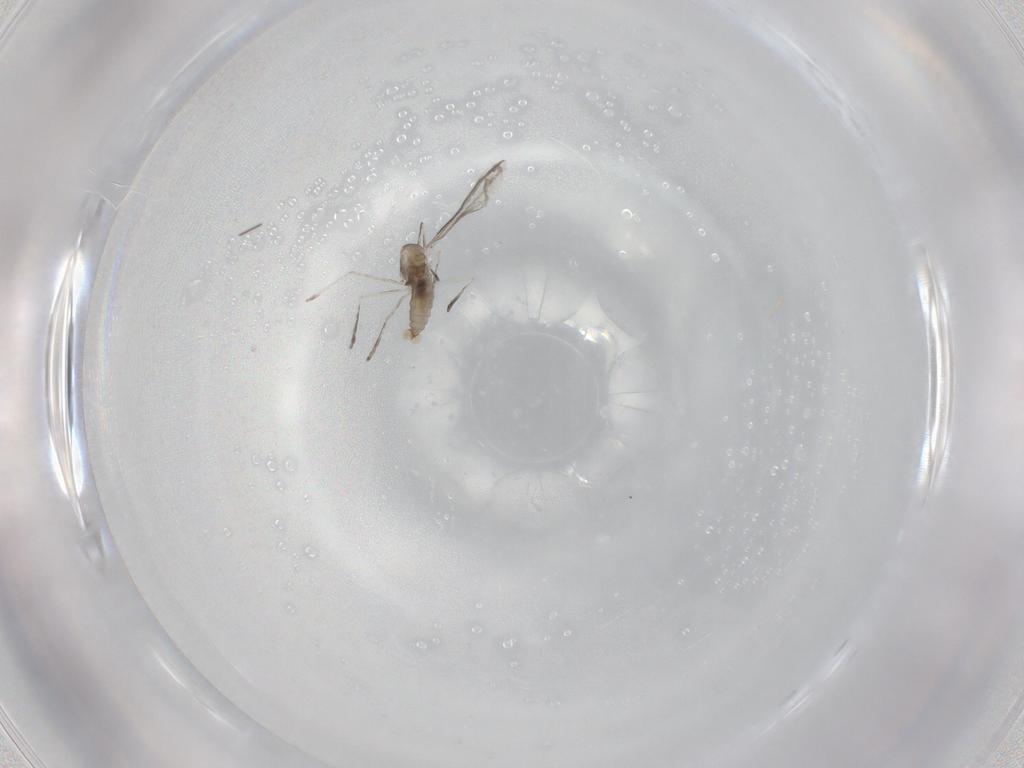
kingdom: Animalia
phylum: Arthropoda
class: Insecta
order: Diptera
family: Cecidomyiidae
